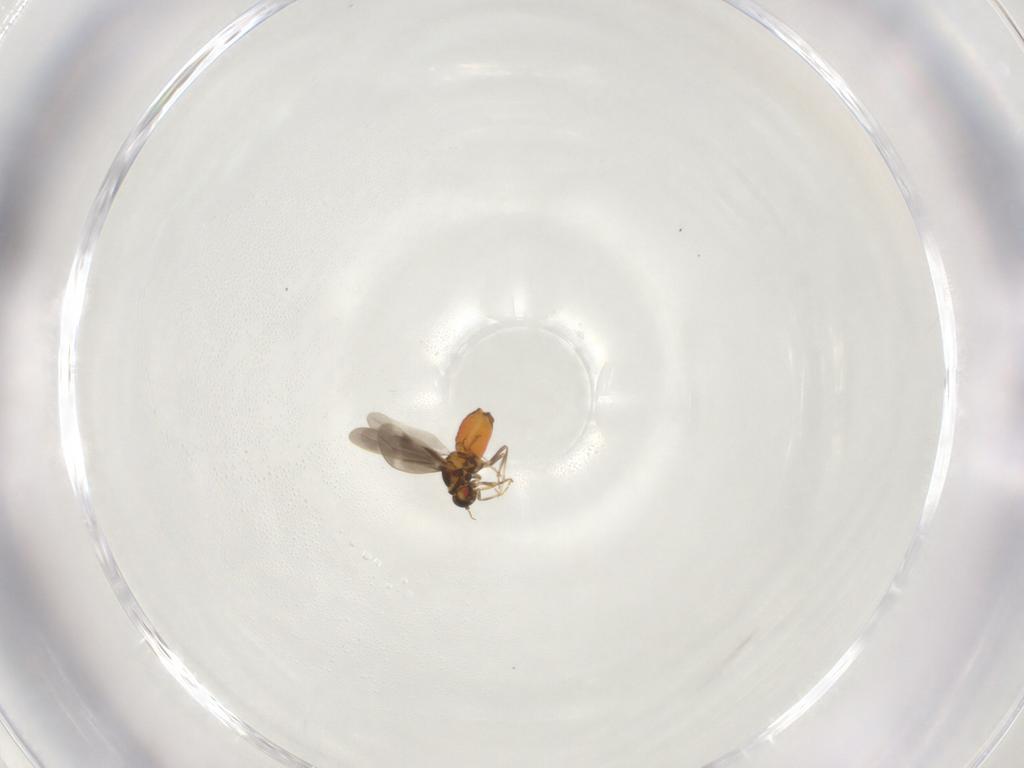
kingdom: Animalia
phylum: Arthropoda
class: Insecta
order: Hemiptera
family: Aleyrodidae
